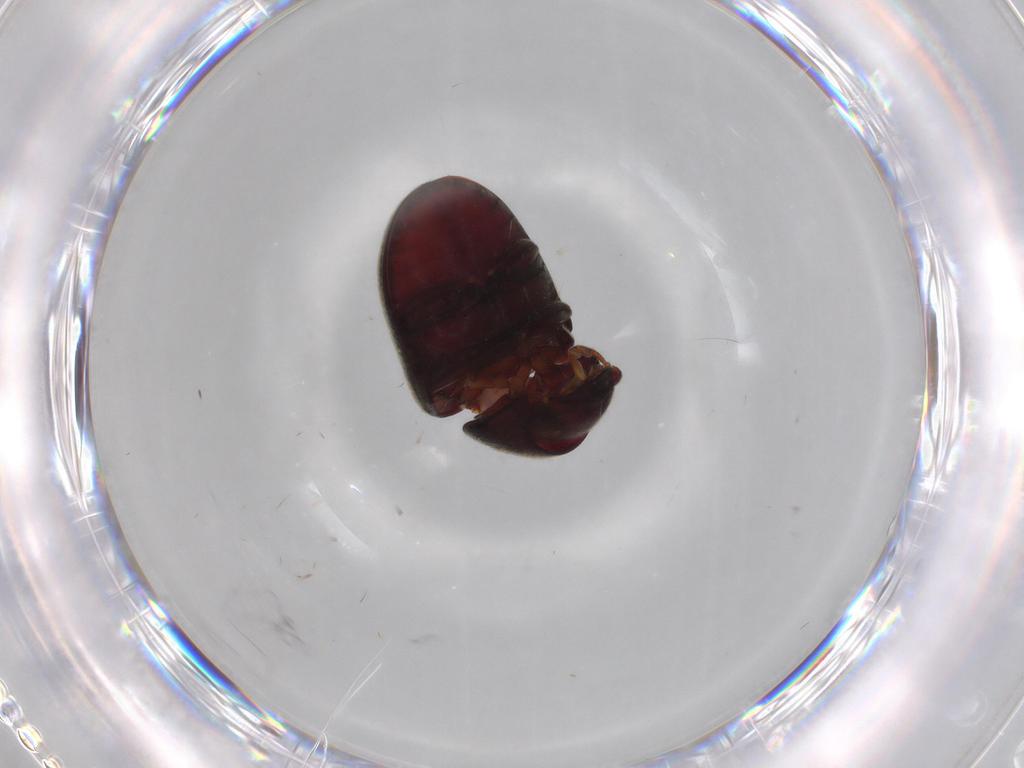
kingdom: Animalia
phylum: Arthropoda
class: Insecta
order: Coleoptera
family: Ptinidae
